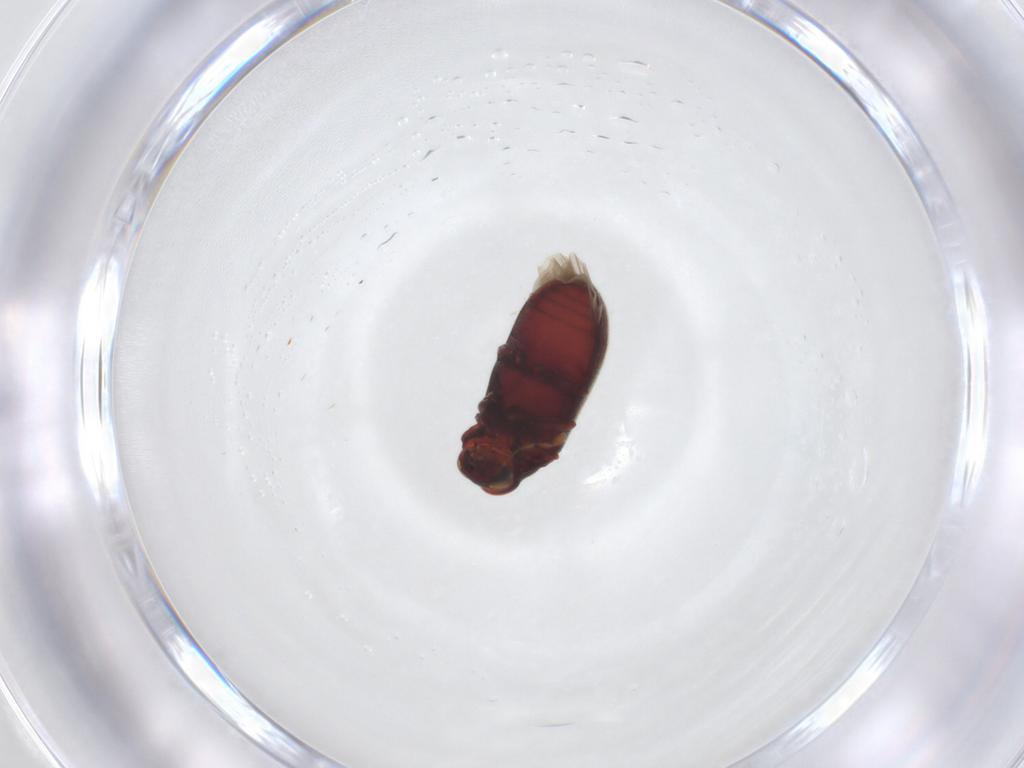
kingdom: Animalia
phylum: Arthropoda
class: Insecta
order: Coleoptera
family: Anobiidae
